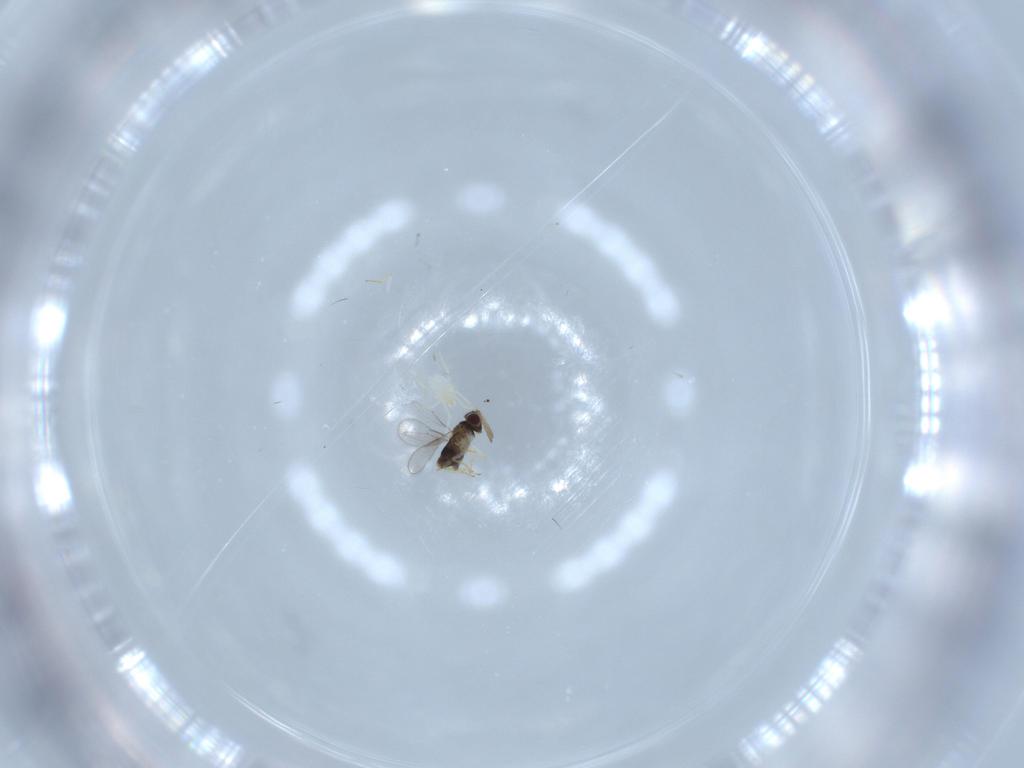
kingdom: Animalia
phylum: Arthropoda
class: Insecta
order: Hymenoptera
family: Aphelinidae
